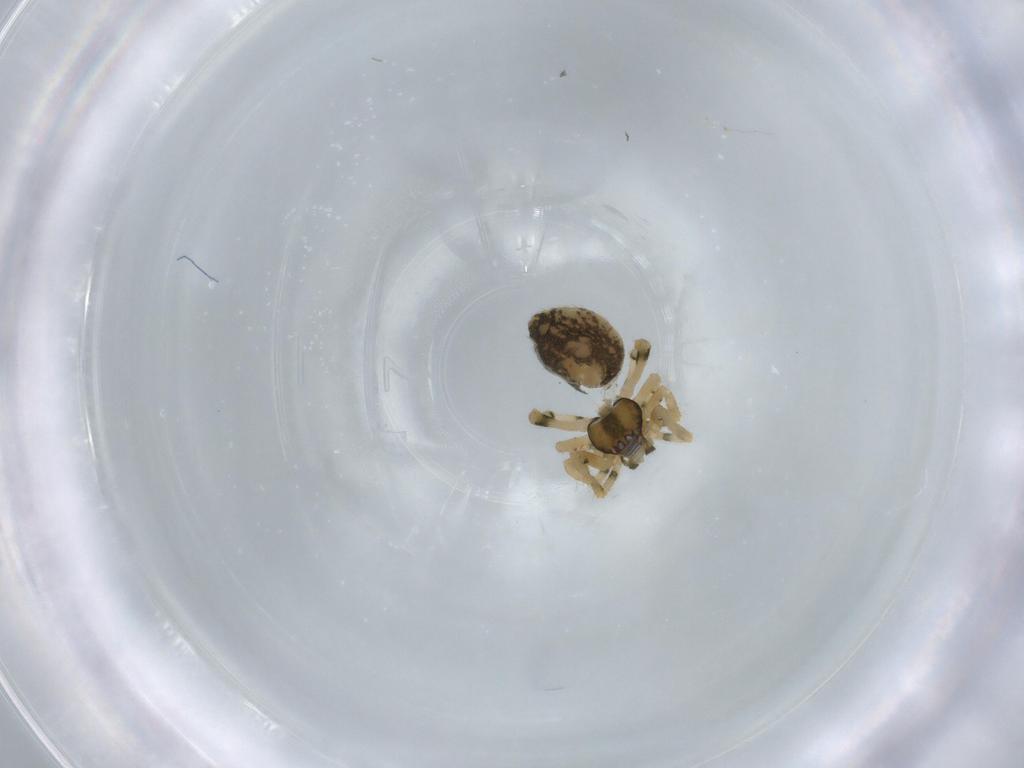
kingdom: Animalia
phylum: Arthropoda
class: Arachnida
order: Araneae
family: Theridiidae
